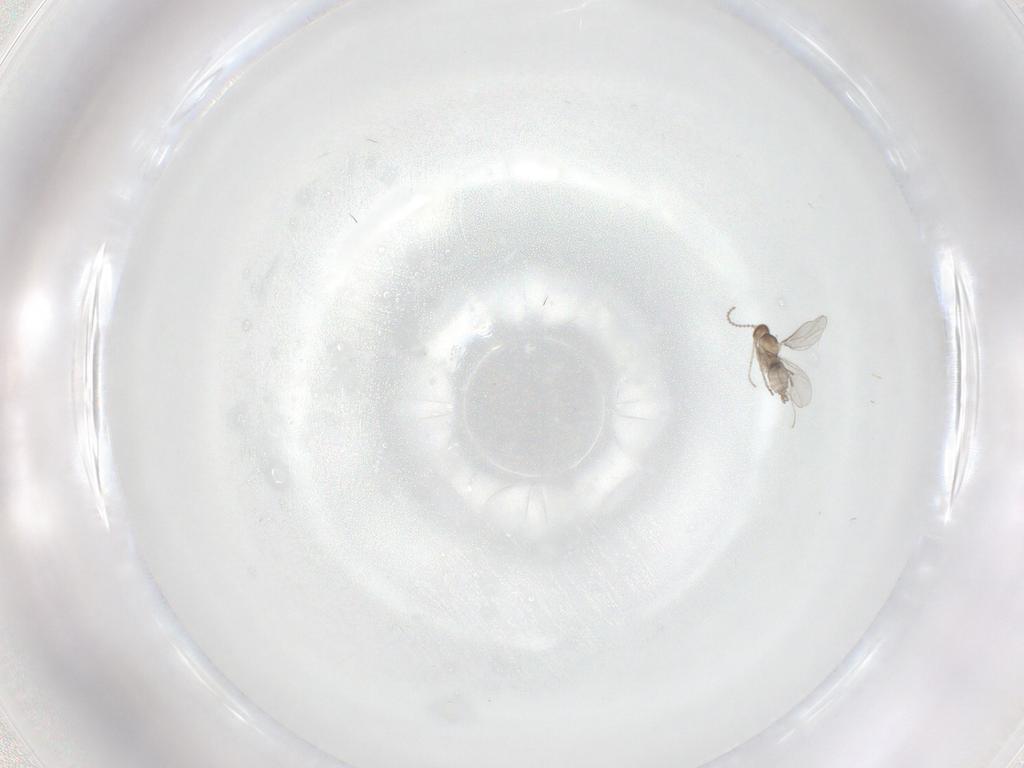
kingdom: Animalia
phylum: Arthropoda
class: Insecta
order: Diptera
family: Cecidomyiidae
